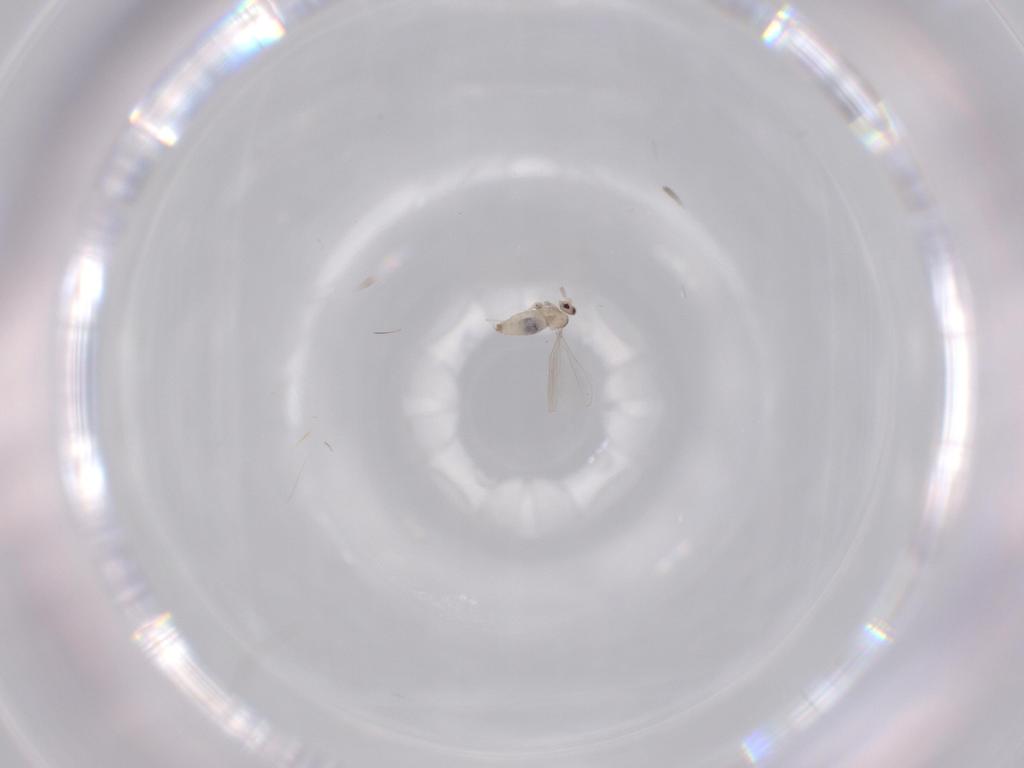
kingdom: Animalia
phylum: Arthropoda
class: Insecta
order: Diptera
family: Cecidomyiidae
